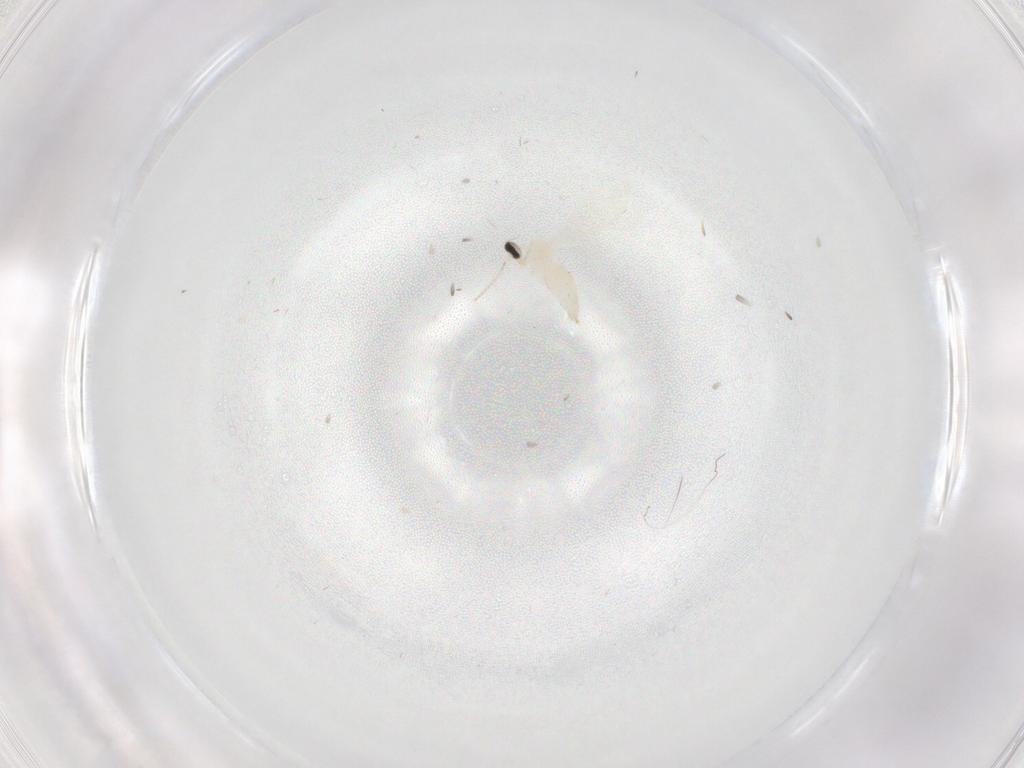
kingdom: Animalia
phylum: Arthropoda
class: Insecta
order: Diptera
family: Cecidomyiidae
